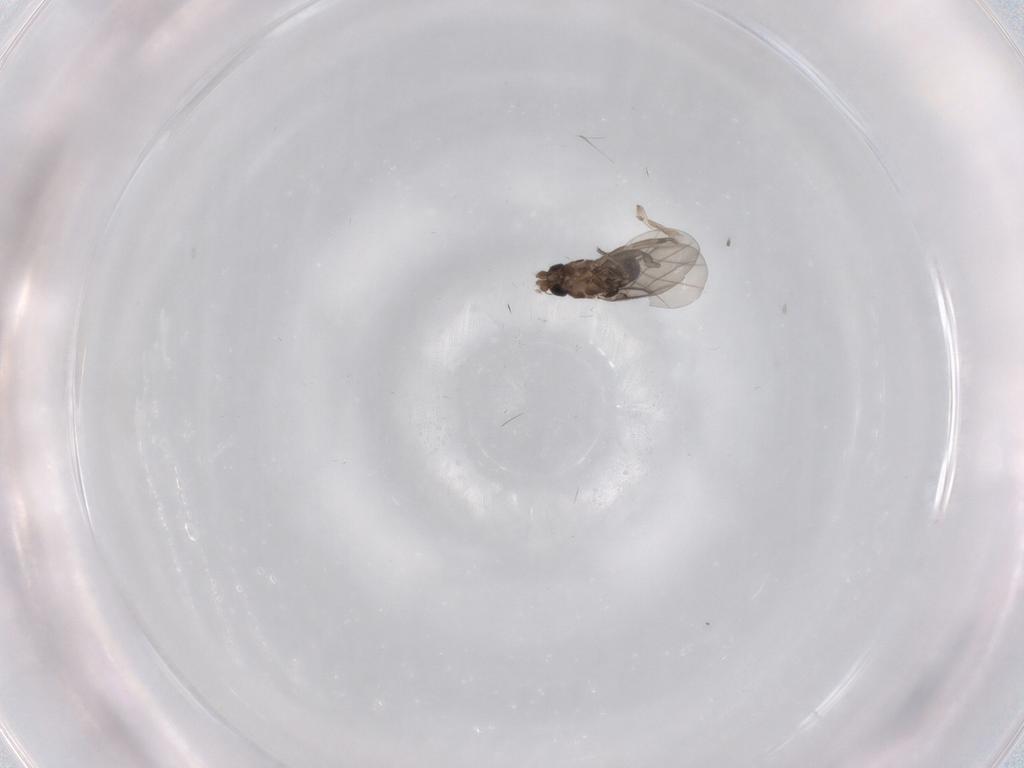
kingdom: Animalia
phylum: Arthropoda
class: Insecta
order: Diptera
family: Phoridae
